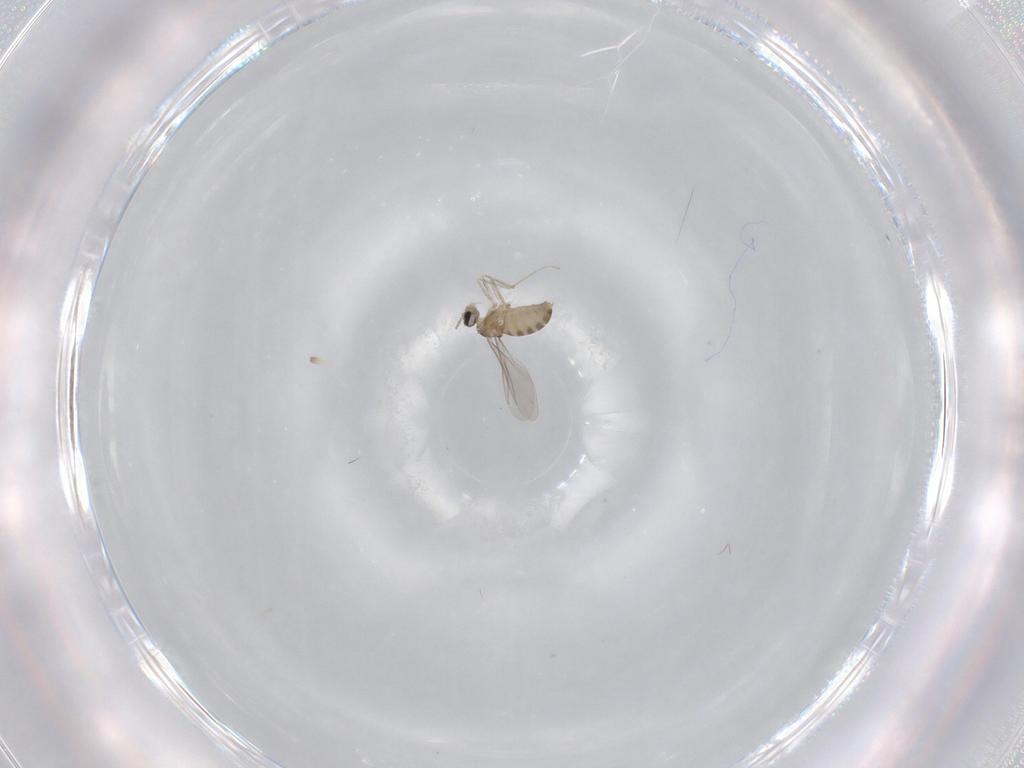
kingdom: Animalia
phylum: Arthropoda
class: Insecta
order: Diptera
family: Cecidomyiidae
